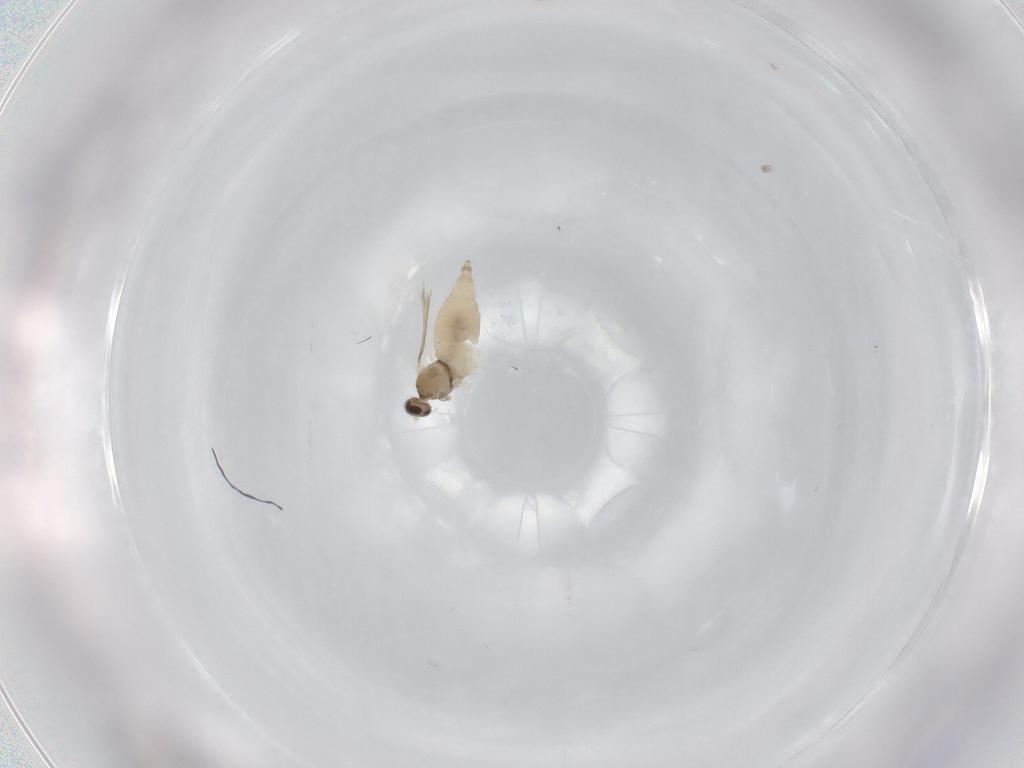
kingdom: Animalia
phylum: Arthropoda
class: Insecta
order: Diptera
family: Cecidomyiidae
